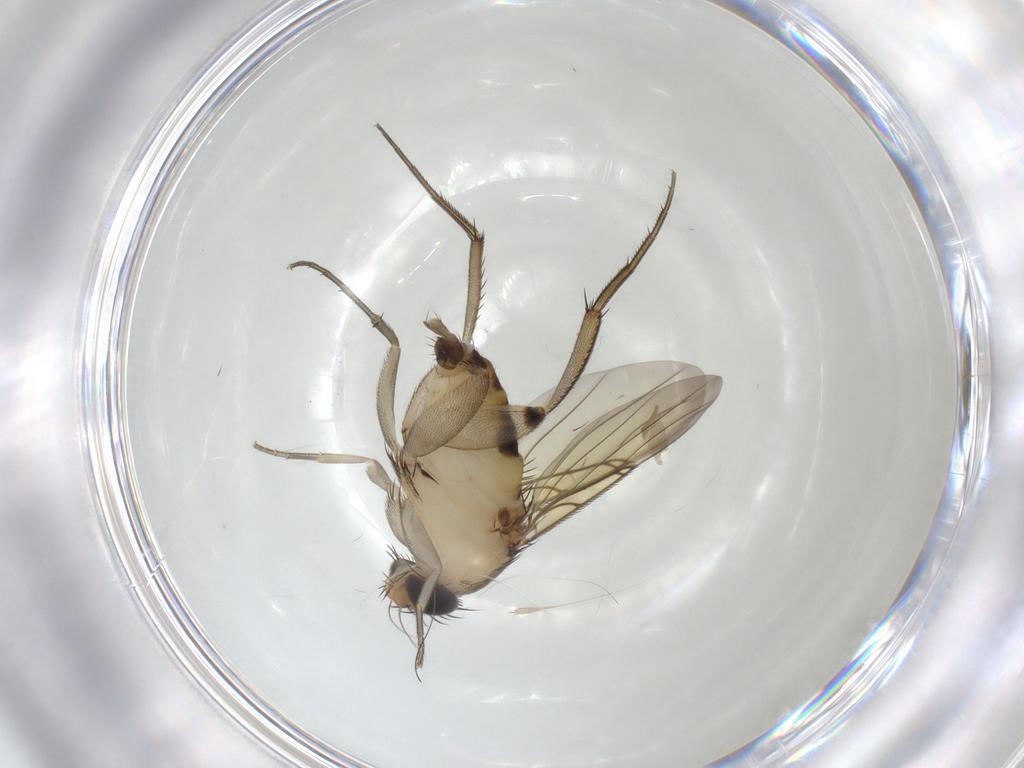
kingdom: Animalia
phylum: Arthropoda
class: Insecta
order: Diptera
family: Phoridae
